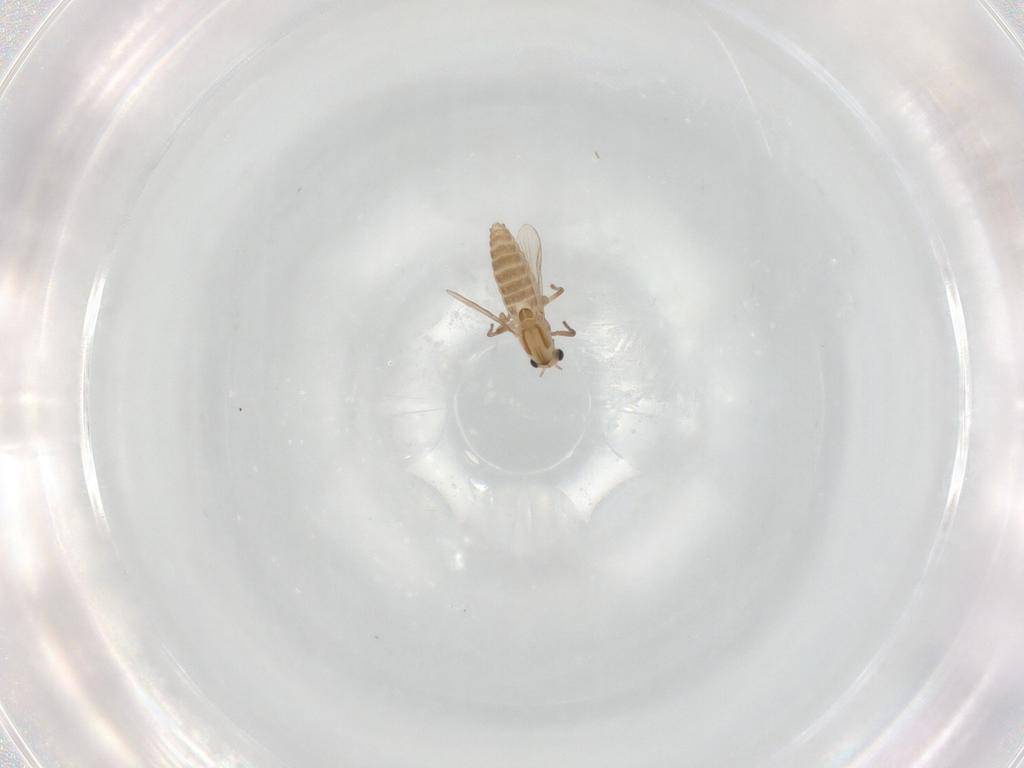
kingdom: Animalia
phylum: Arthropoda
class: Insecta
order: Diptera
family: Chironomidae
